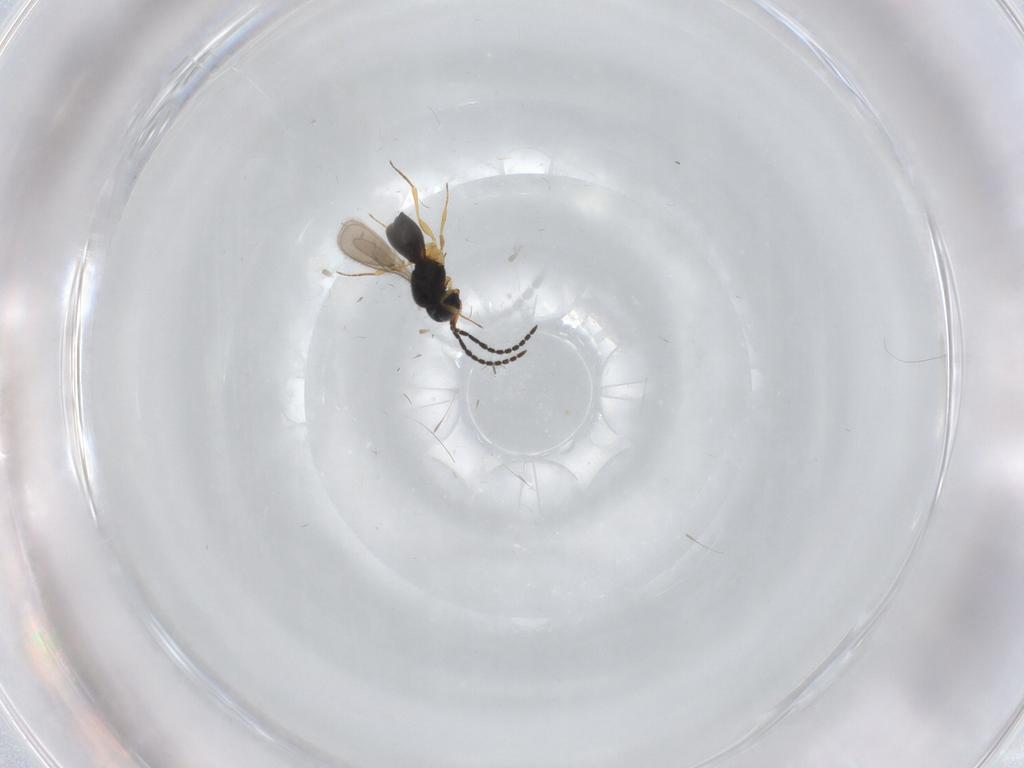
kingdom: Animalia
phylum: Arthropoda
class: Insecta
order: Hymenoptera
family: Scelionidae
